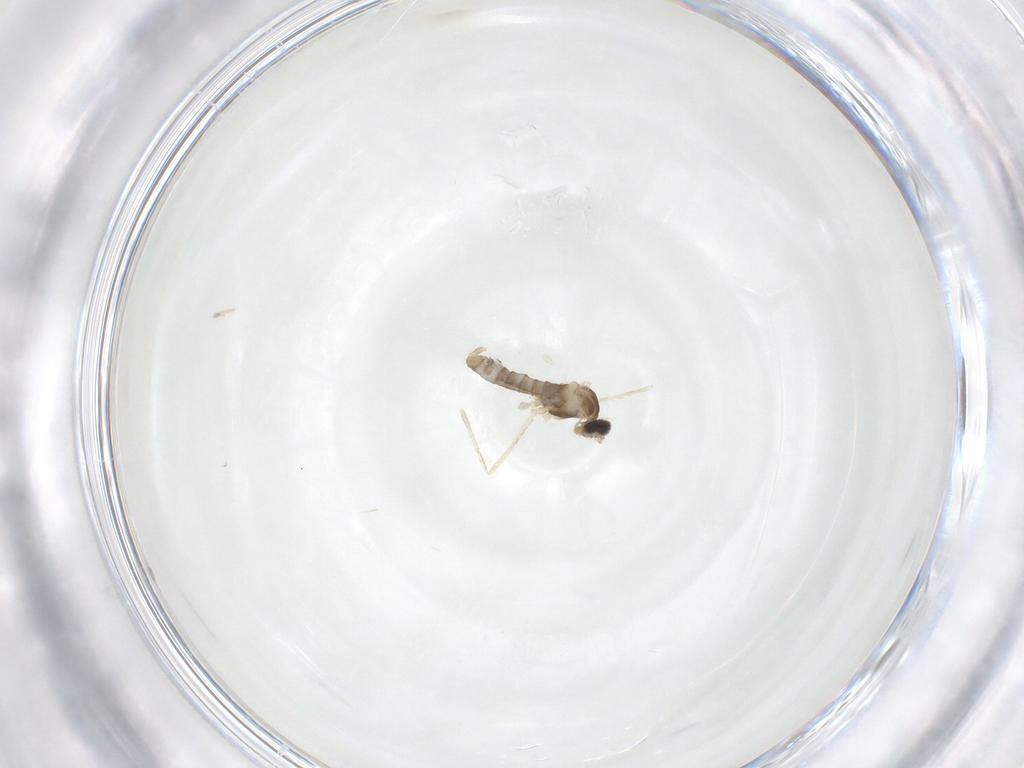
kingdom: Animalia
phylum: Arthropoda
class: Insecta
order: Diptera
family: Cecidomyiidae
